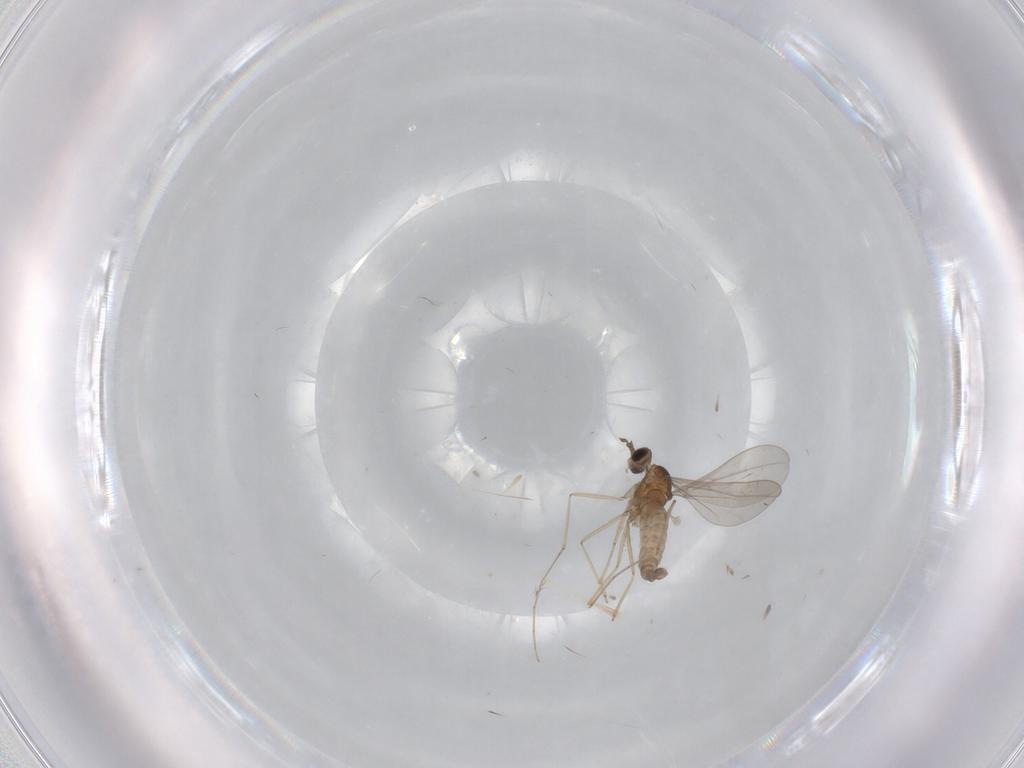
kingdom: Animalia
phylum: Arthropoda
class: Insecta
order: Diptera
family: Cecidomyiidae
